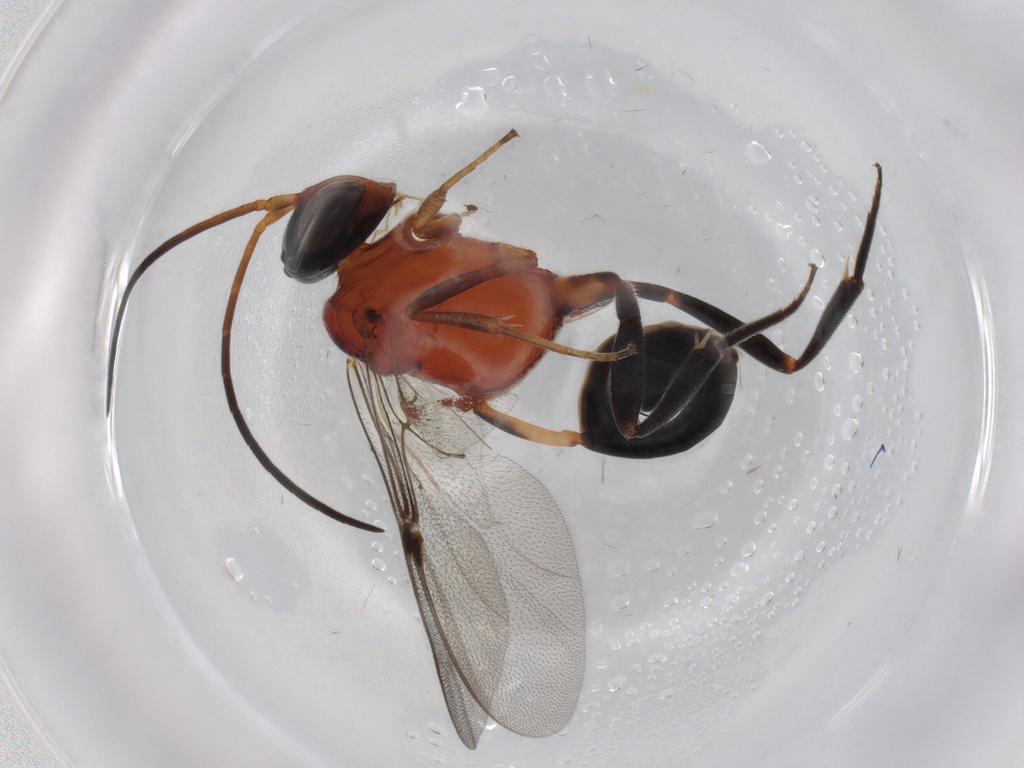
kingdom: Animalia
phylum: Arthropoda
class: Insecta
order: Hymenoptera
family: Evaniidae
